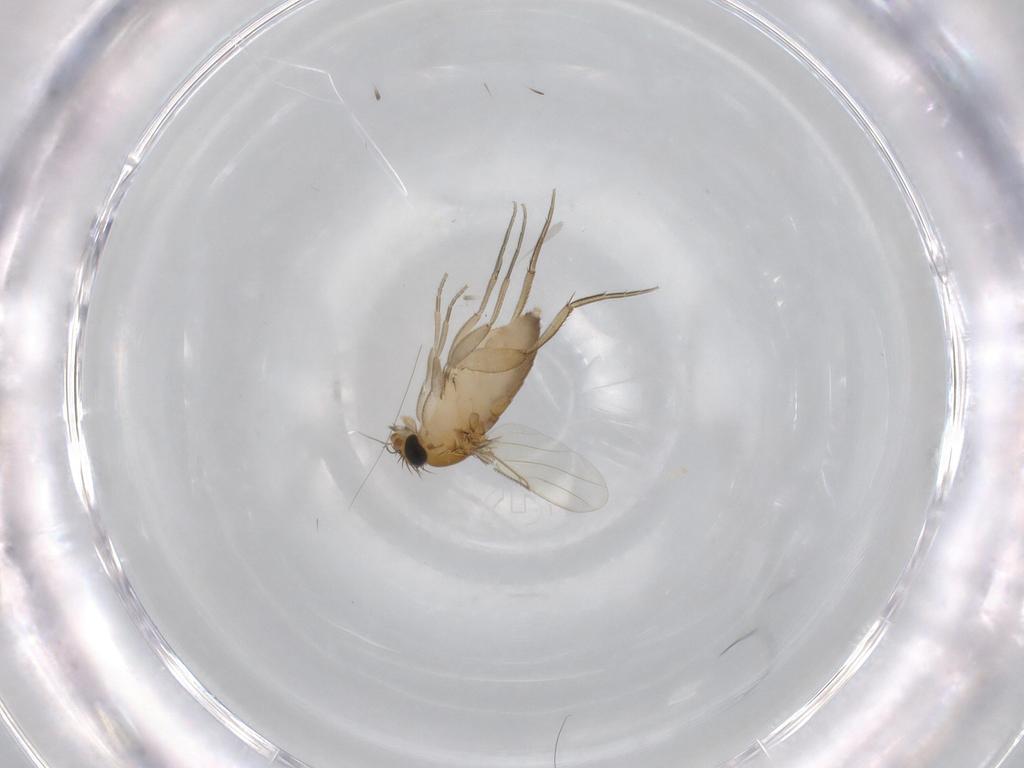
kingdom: Animalia
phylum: Arthropoda
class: Insecta
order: Diptera
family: Phoridae
